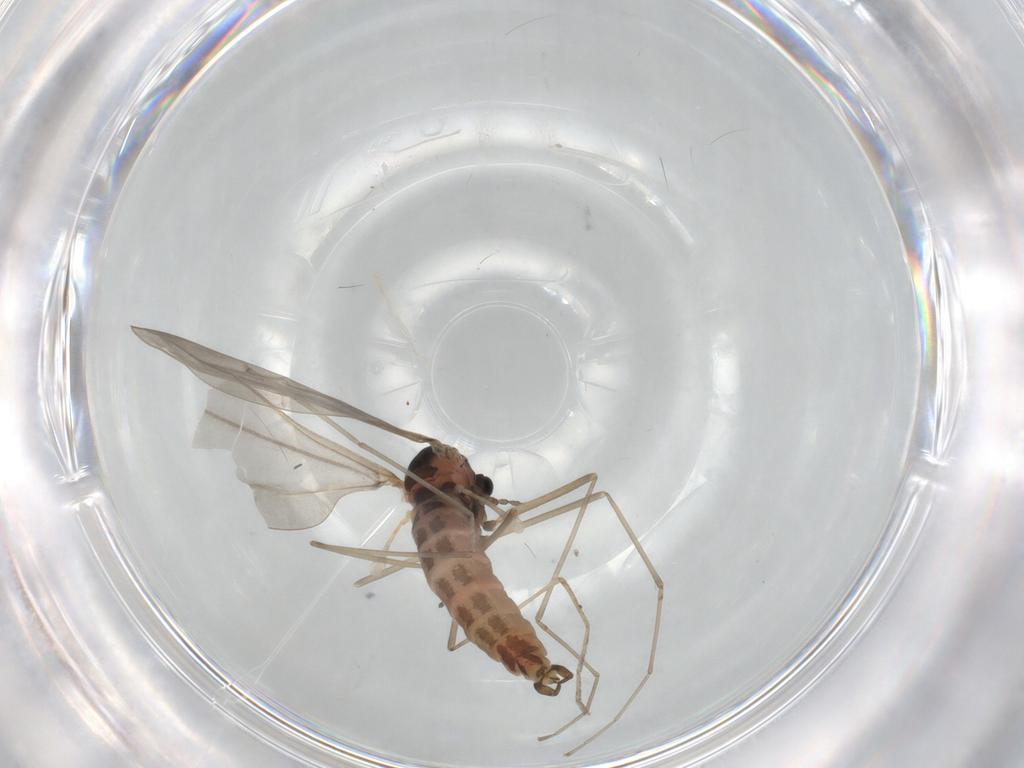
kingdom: Animalia
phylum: Arthropoda
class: Insecta
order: Diptera
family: Cecidomyiidae
